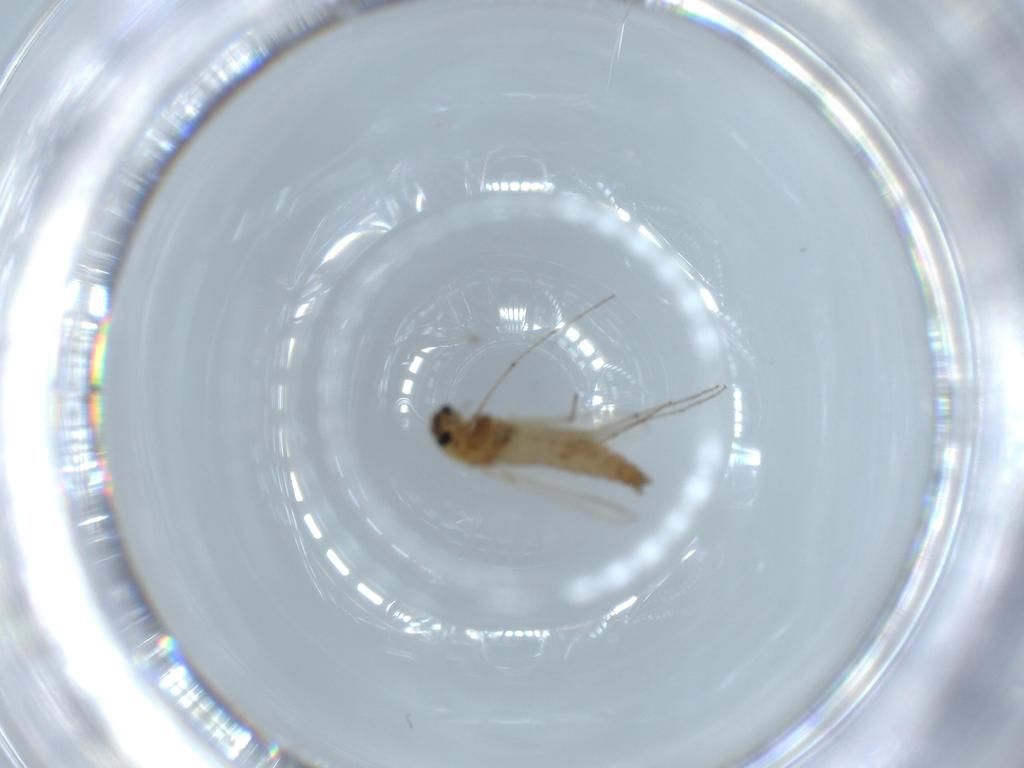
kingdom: Animalia
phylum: Arthropoda
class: Insecta
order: Diptera
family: Chironomidae
